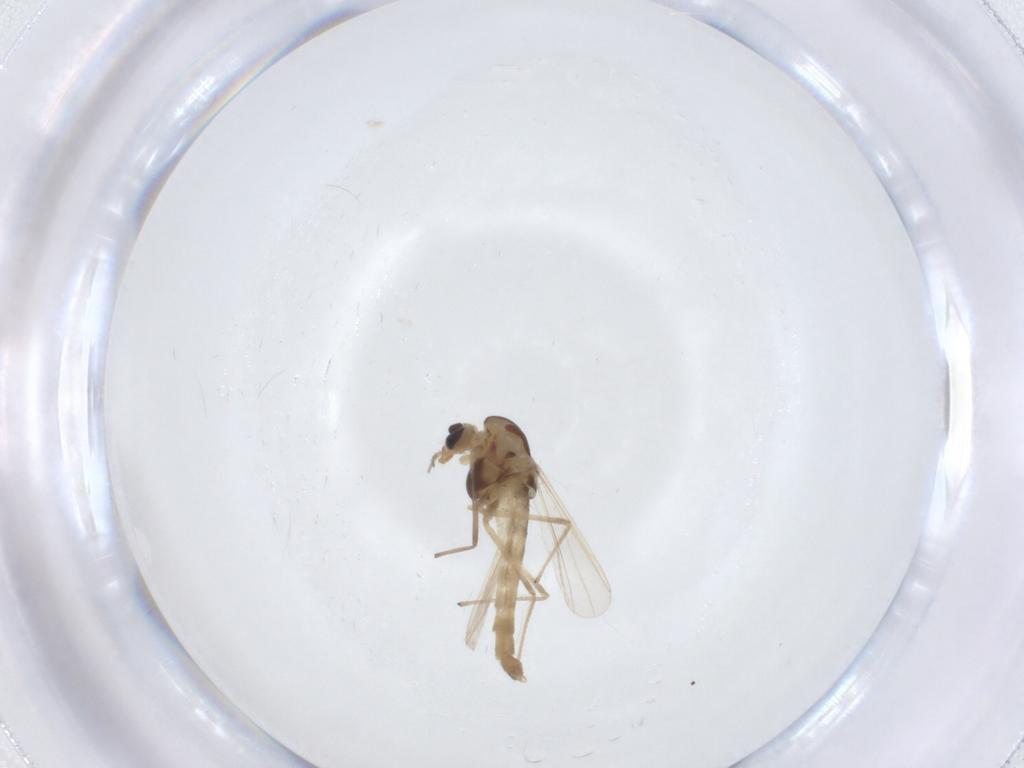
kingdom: Animalia
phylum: Arthropoda
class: Insecta
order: Diptera
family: Chironomidae
